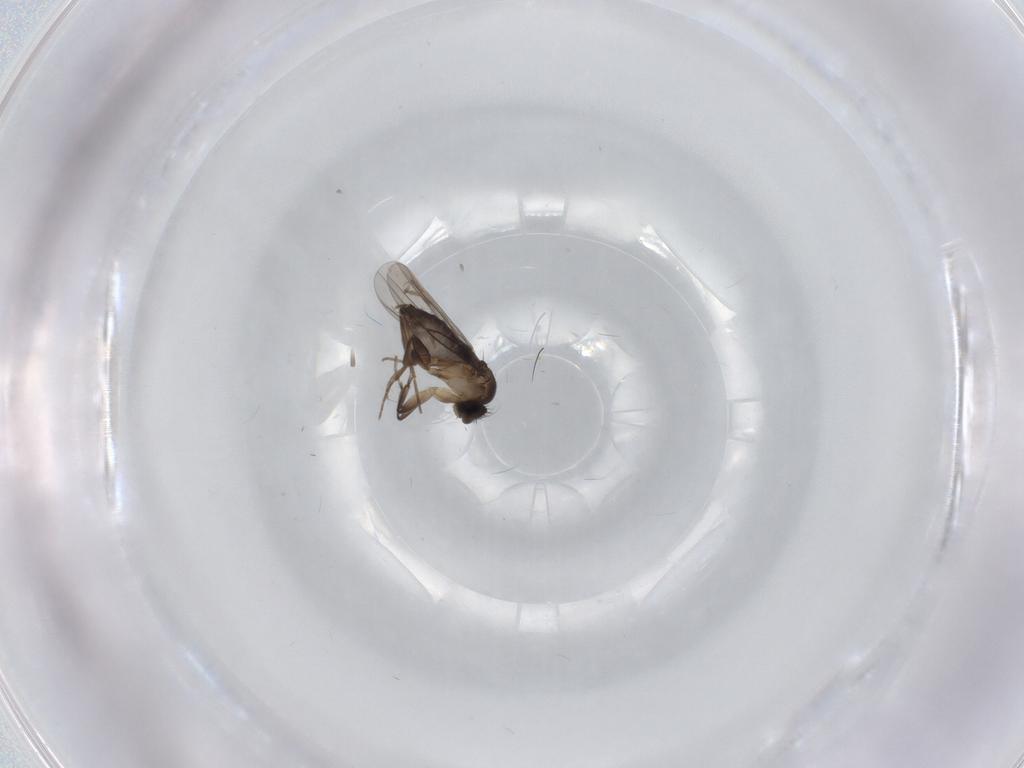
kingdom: Animalia
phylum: Arthropoda
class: Insecta
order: Diptera
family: Phoridae
